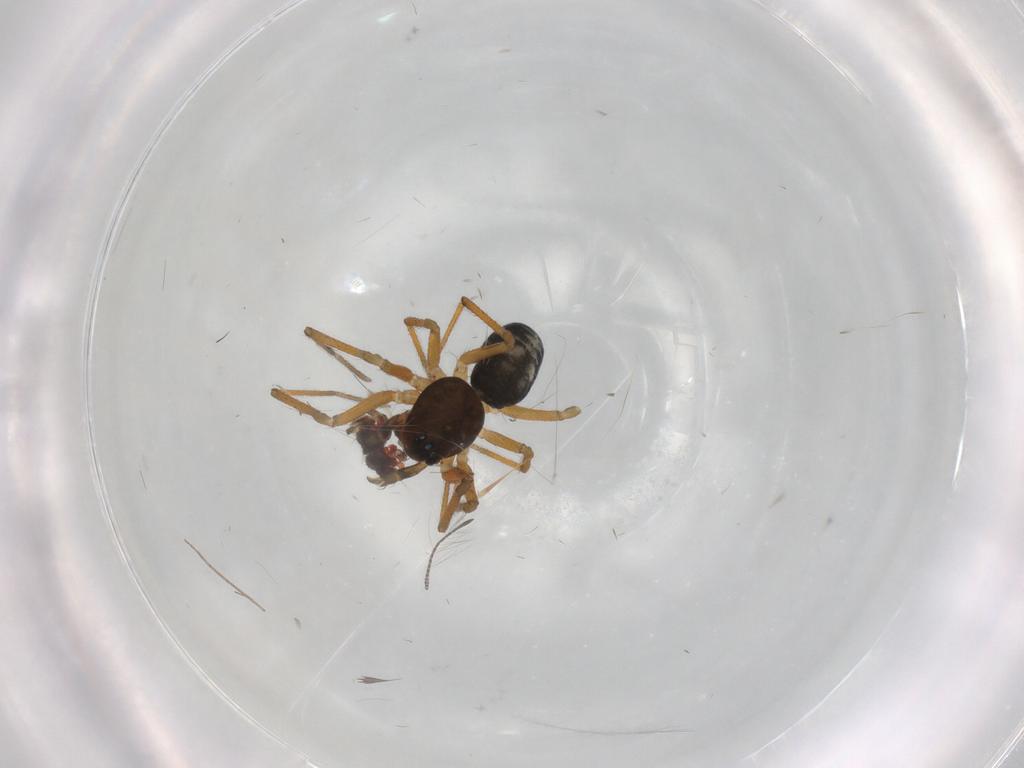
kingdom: Animalia
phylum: Arthropoda
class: Arachnida
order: Araneae
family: Linyphiidae
